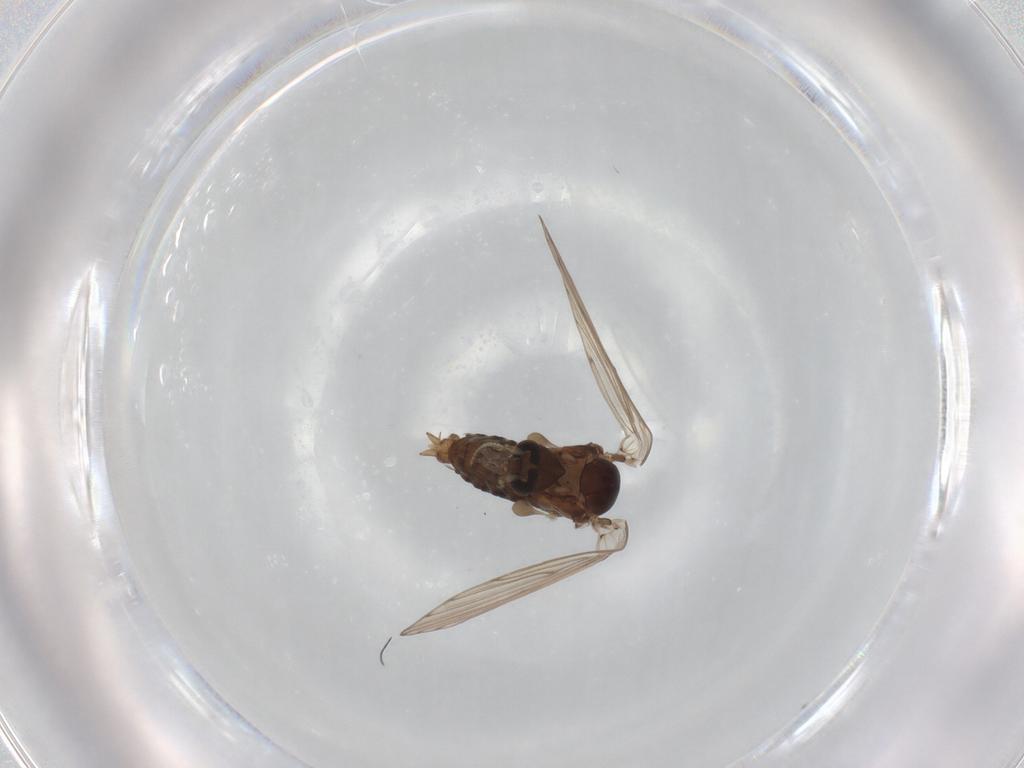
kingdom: Animalia
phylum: Arthropoda
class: Insecta
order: Diptera
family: Psychodidae
